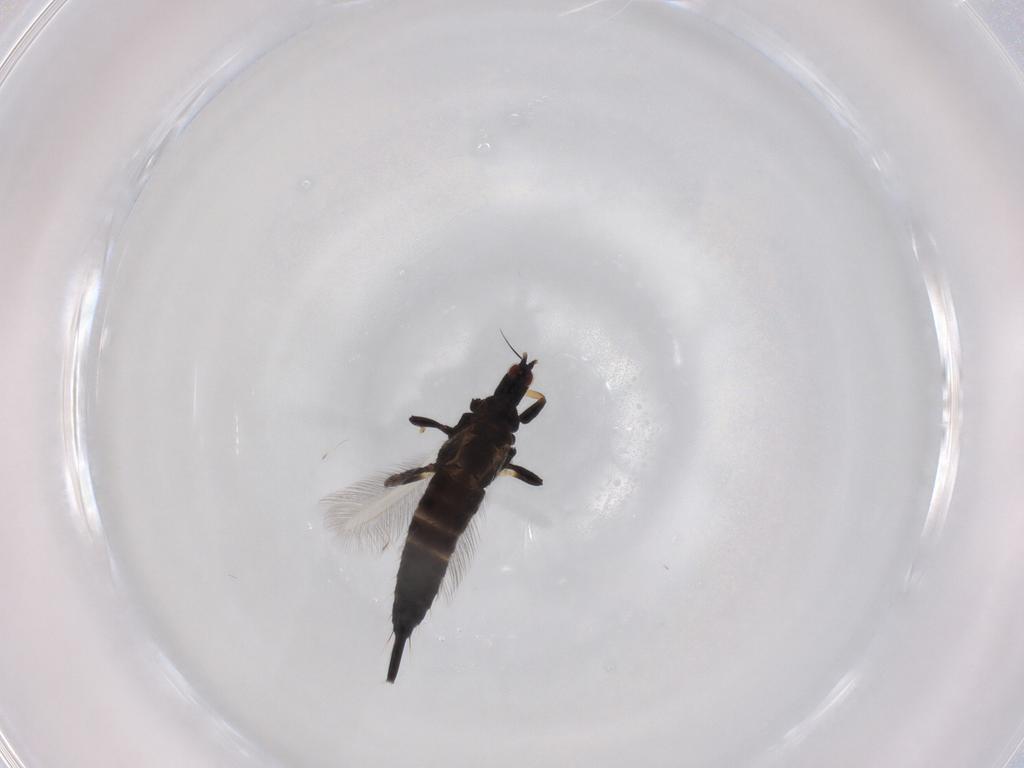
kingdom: Animalia
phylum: Arthropoda
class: Insecta
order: Thysanoptera
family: Phlaeothripidae
